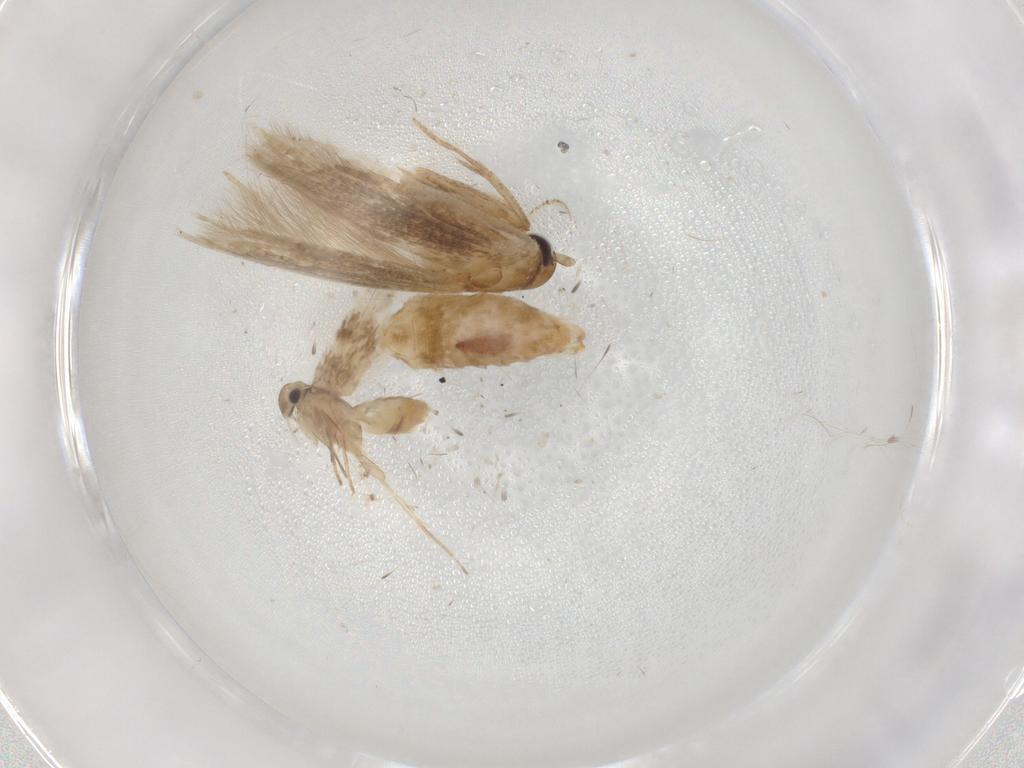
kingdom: Animalia
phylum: Arthropoda
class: Insecta
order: Lepidoptera
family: Cosmopterigidae
